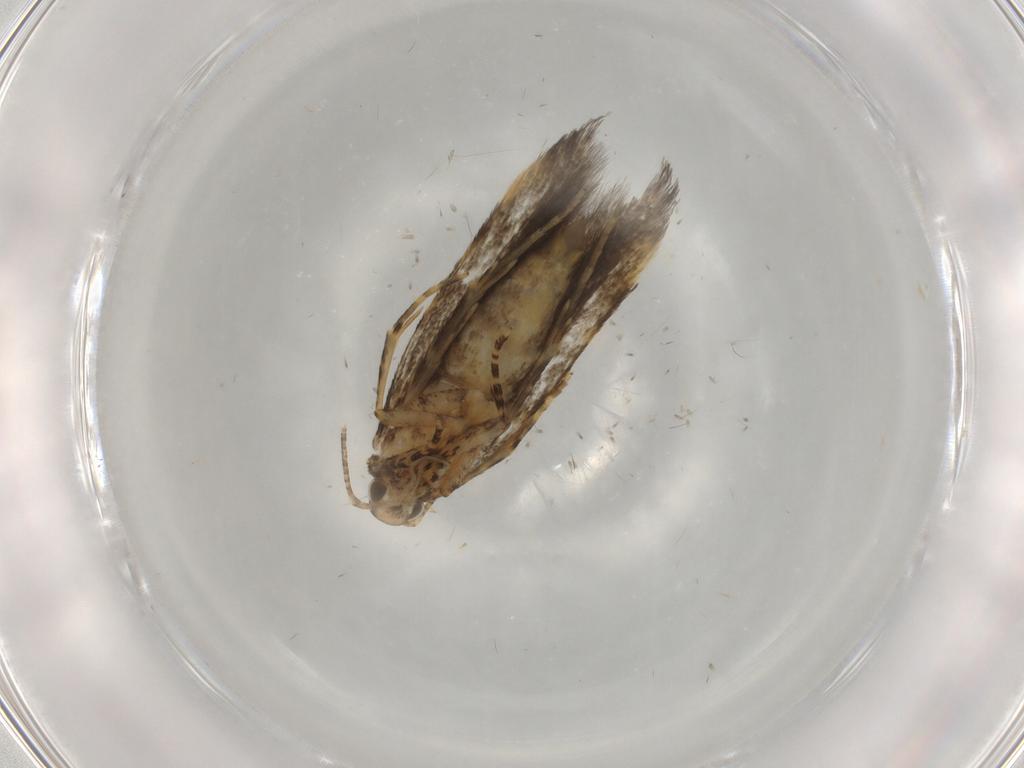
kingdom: Animalia
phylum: Arthropoda
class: Insecta
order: Lepidoptera
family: Oecophoridae
